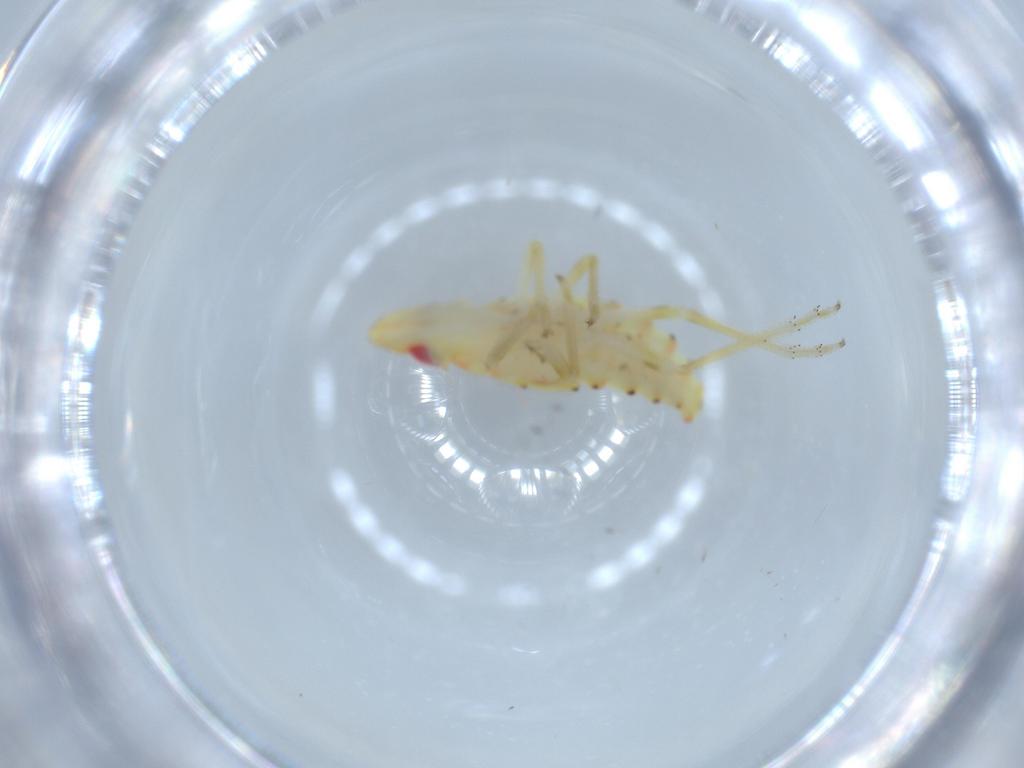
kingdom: Animalia
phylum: Arthropoda
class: Insecta
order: Hemiptera
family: Tropiduchidae
